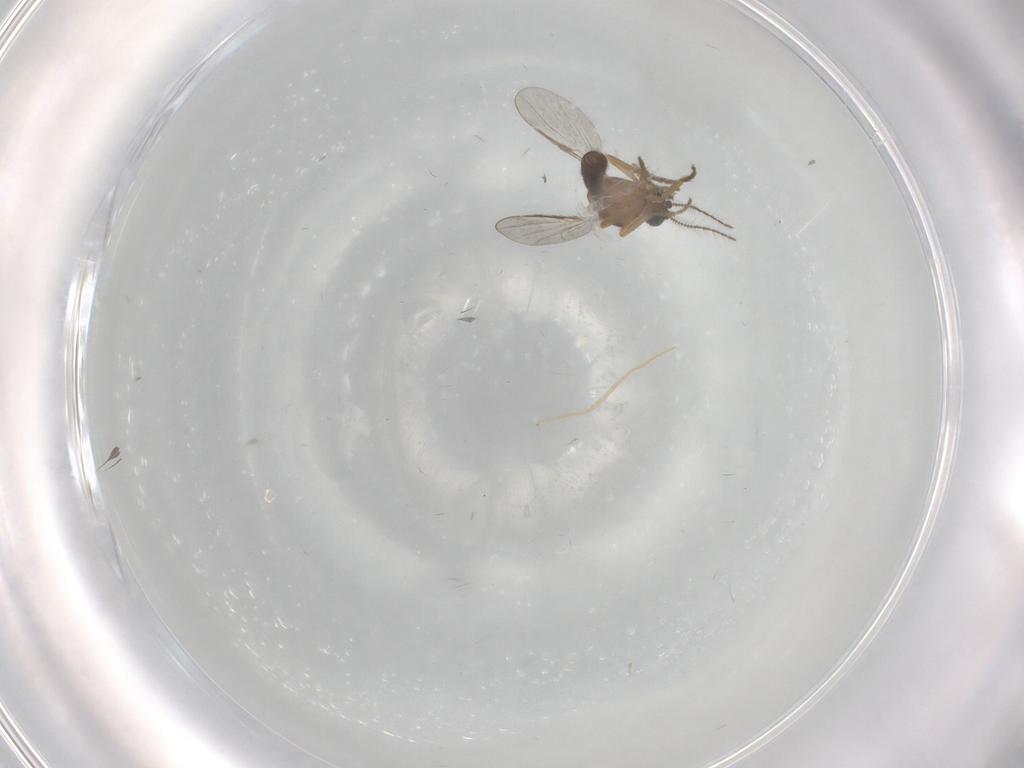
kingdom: Animalia
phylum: Arthropoda
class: Insecta
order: Diptera
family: Ceratopogonidae
